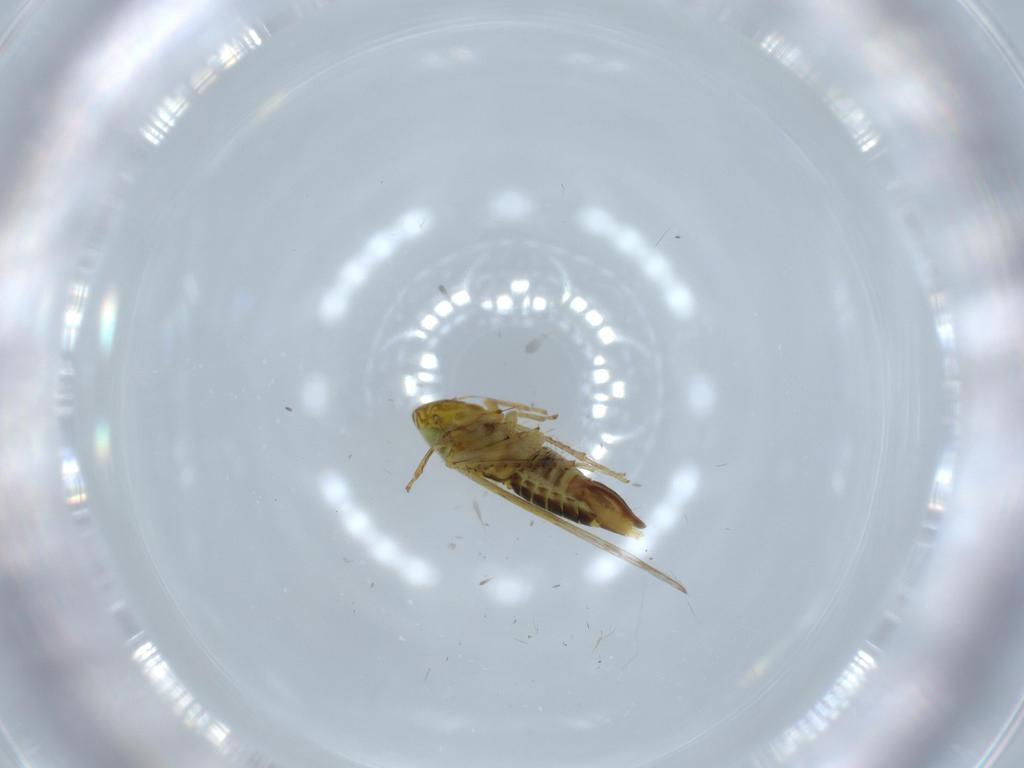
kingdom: Animalia
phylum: Arthropoda
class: Insecta
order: Hemiptera
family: Cicadellidae
